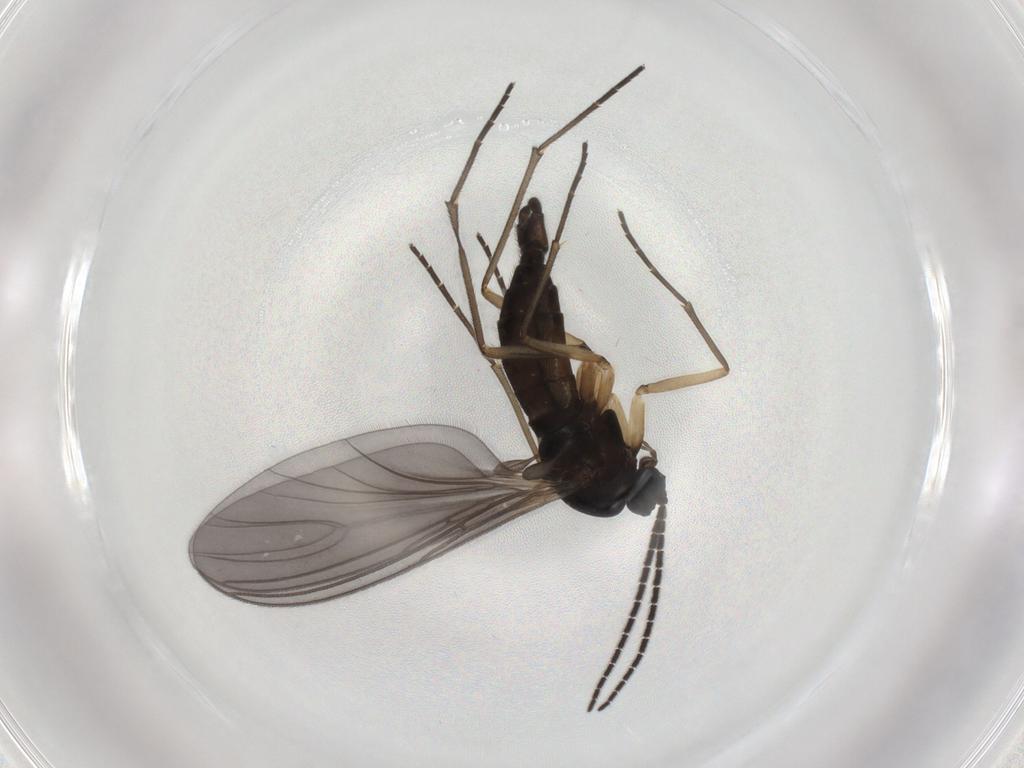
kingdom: Animalia
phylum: Arthropoda
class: Insecta
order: Diptera
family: Sciaridae
